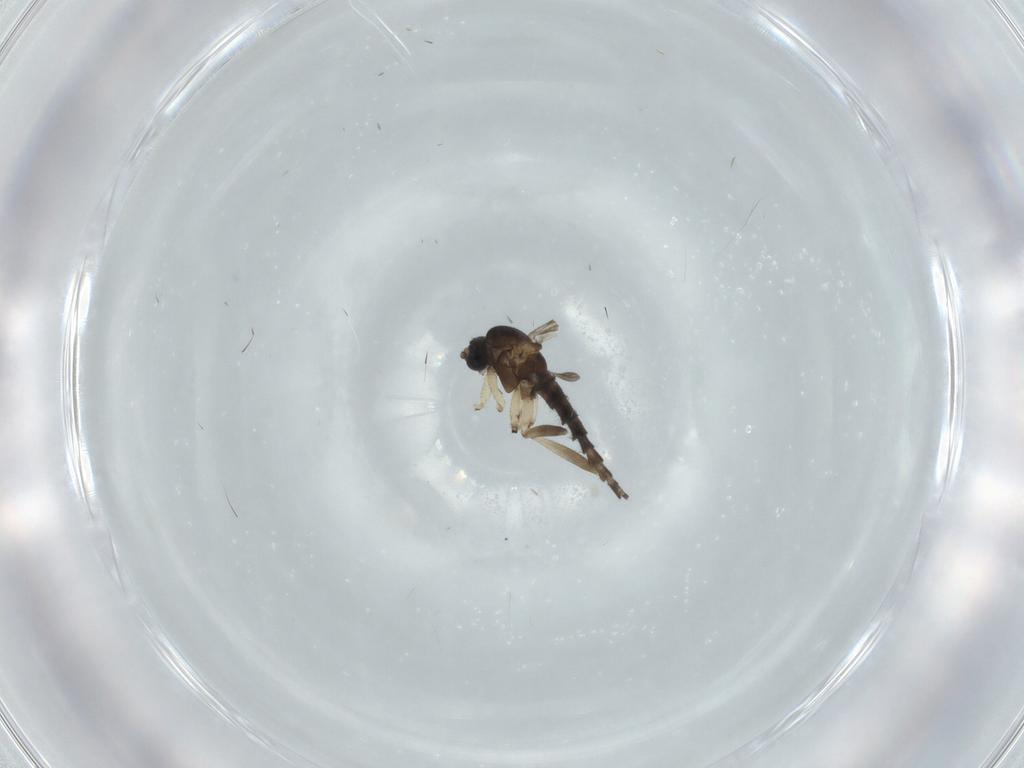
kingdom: Animalia
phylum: Arthropoda
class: Insecta
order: Diptera
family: Sciaridae
